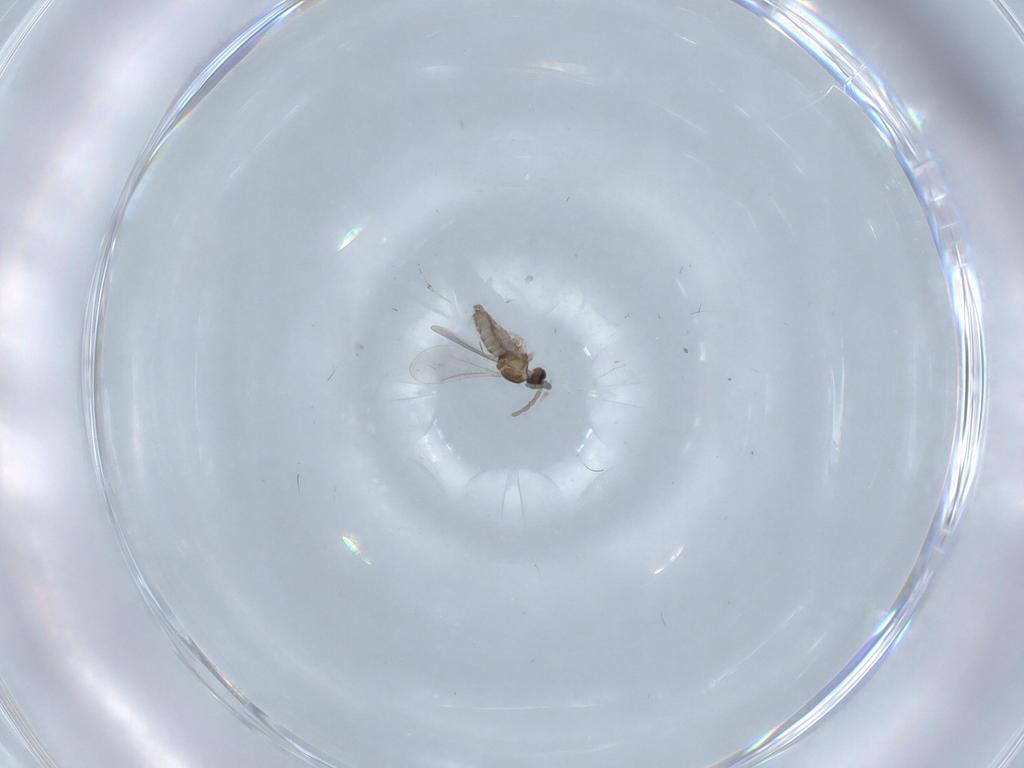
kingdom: Animalia
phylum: Arthropoda
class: Insecta
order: Diptera
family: Cecidomyiidae
